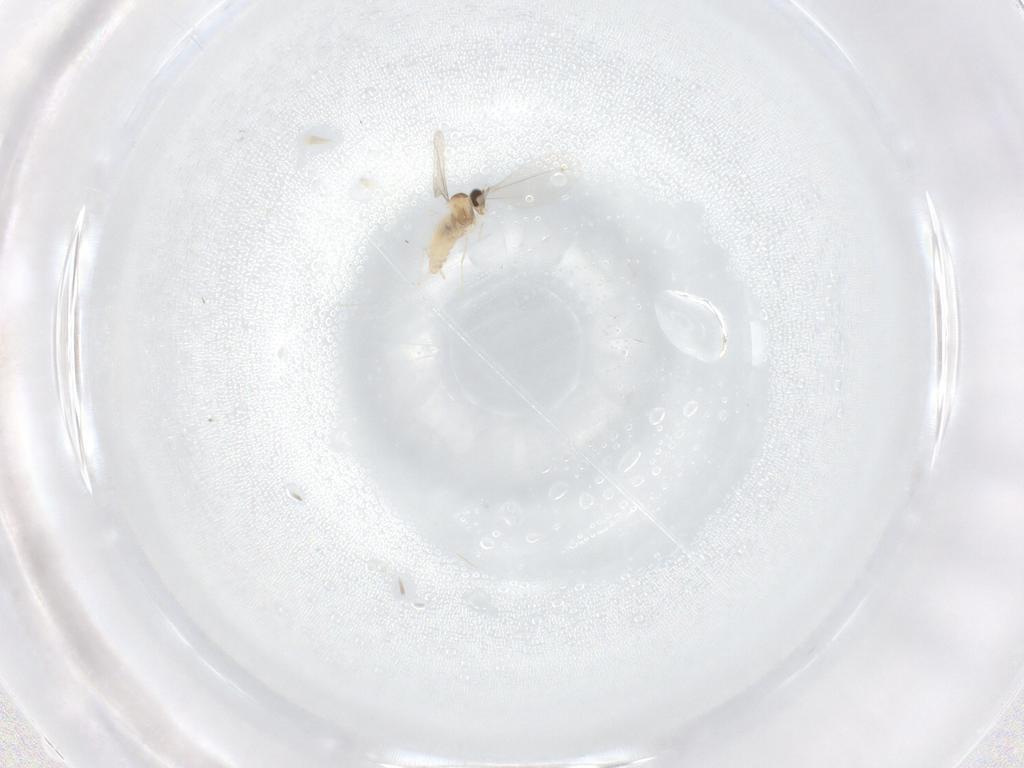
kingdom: Animalia
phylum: Arthropoda
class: Insecta
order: Diptera
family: Cecidomyiidae
